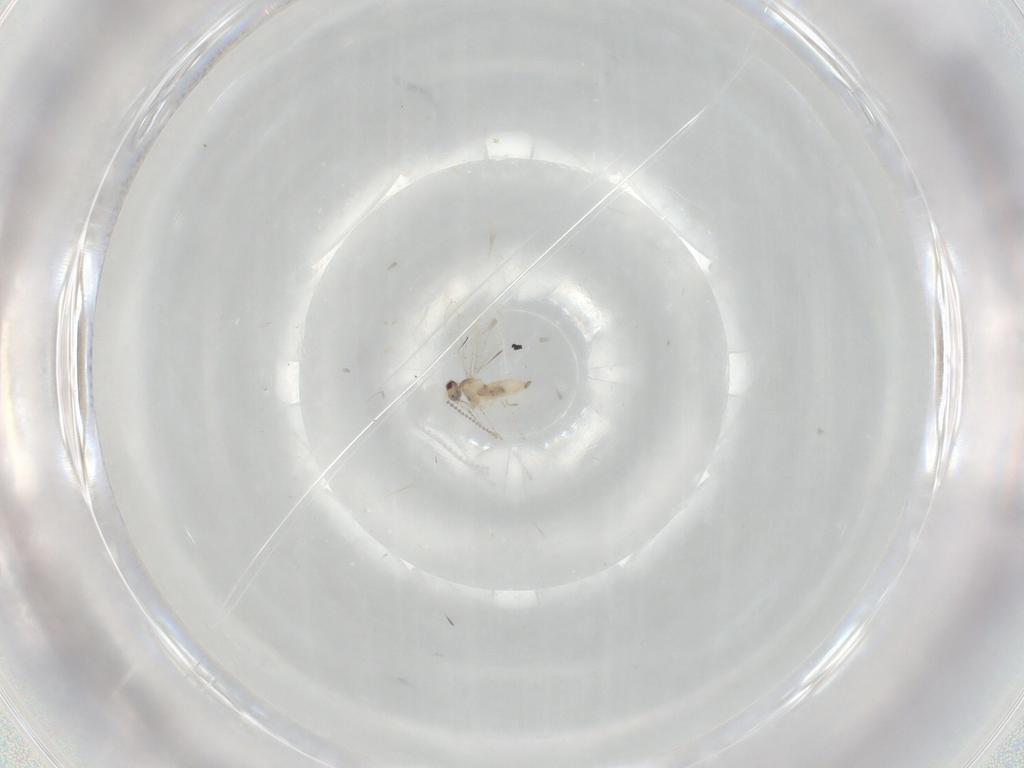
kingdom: Animalia
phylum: Arthropoda
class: Insecta
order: Diptera
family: Cecidomyiidae
